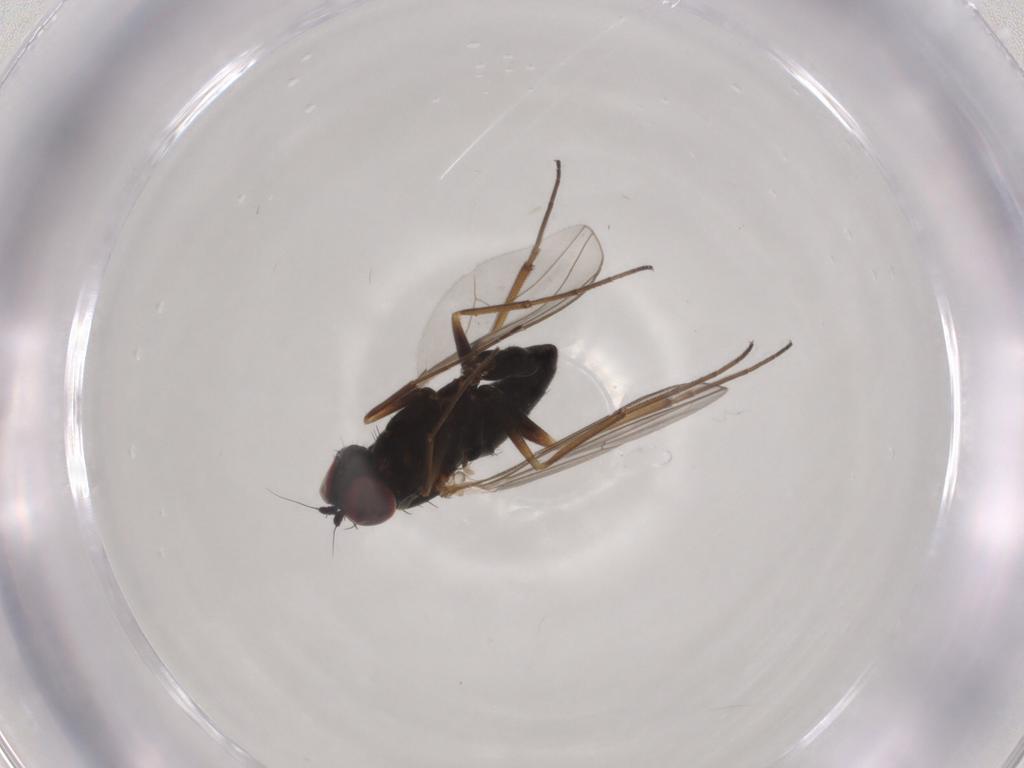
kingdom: Animalia
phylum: Arthropoda
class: Insecta
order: Diptera
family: Dolichopodidae
